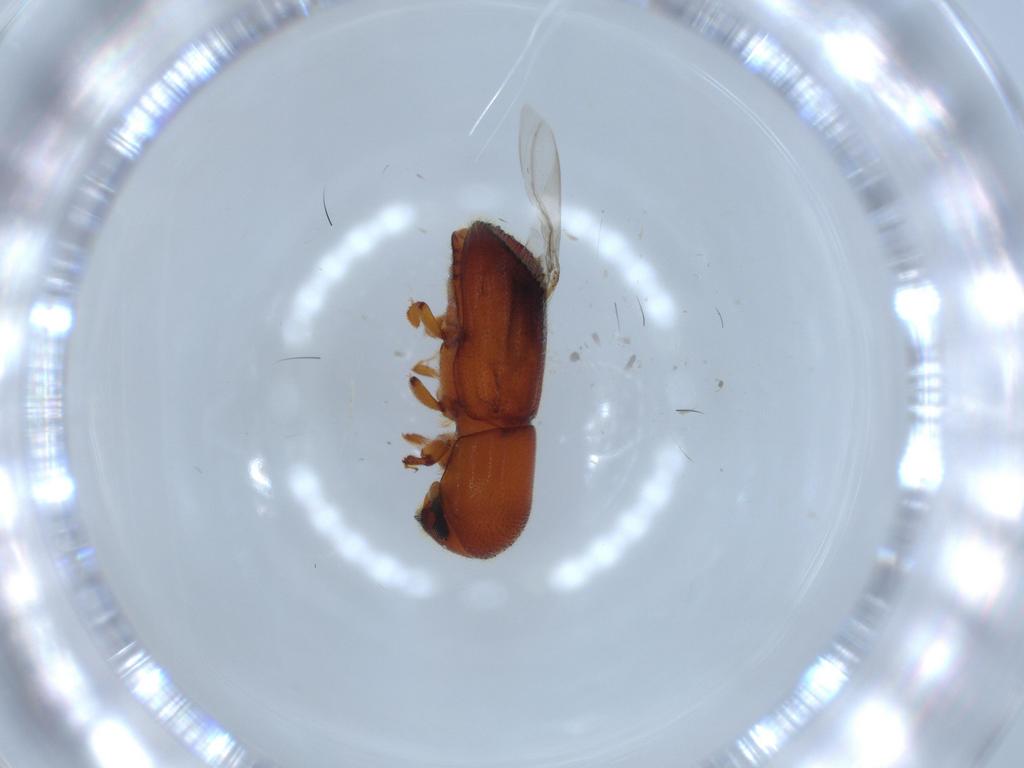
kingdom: Animalia
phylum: Arthropoda
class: Insecta
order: Coleoptera
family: Curculionidae
